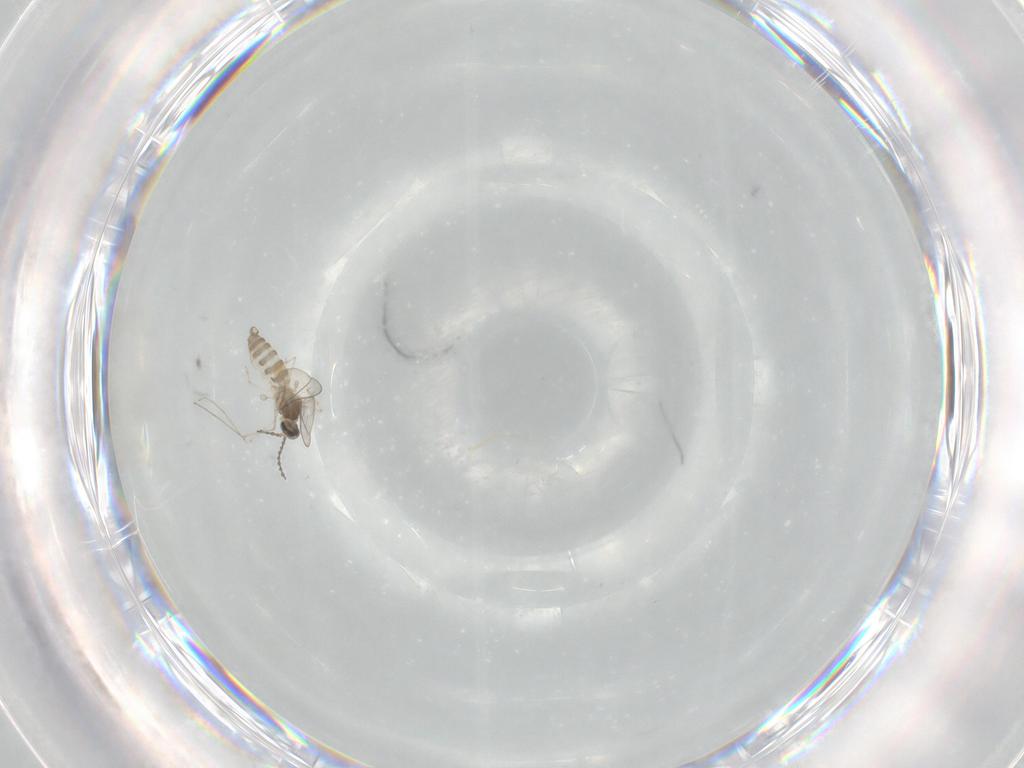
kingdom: Animalia
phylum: Arthropoda
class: Insecta
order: Diptera
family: Cecidomyiidae
